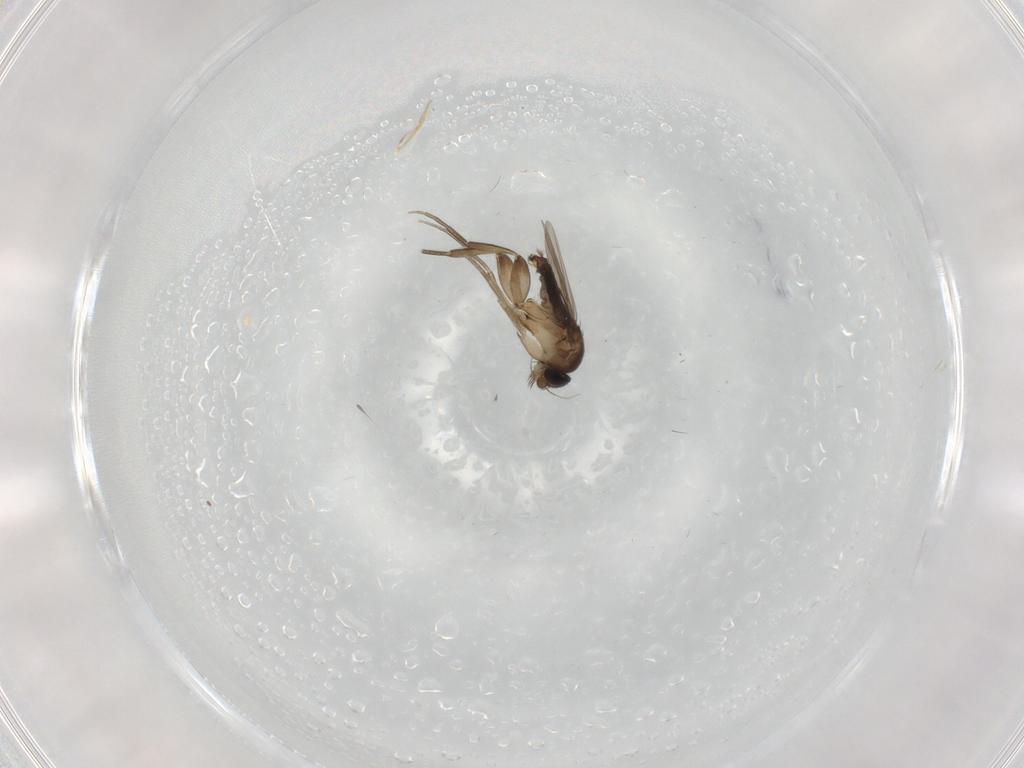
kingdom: Animalia
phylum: Arthropoda
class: Insecta
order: Diptera
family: Phoridae
